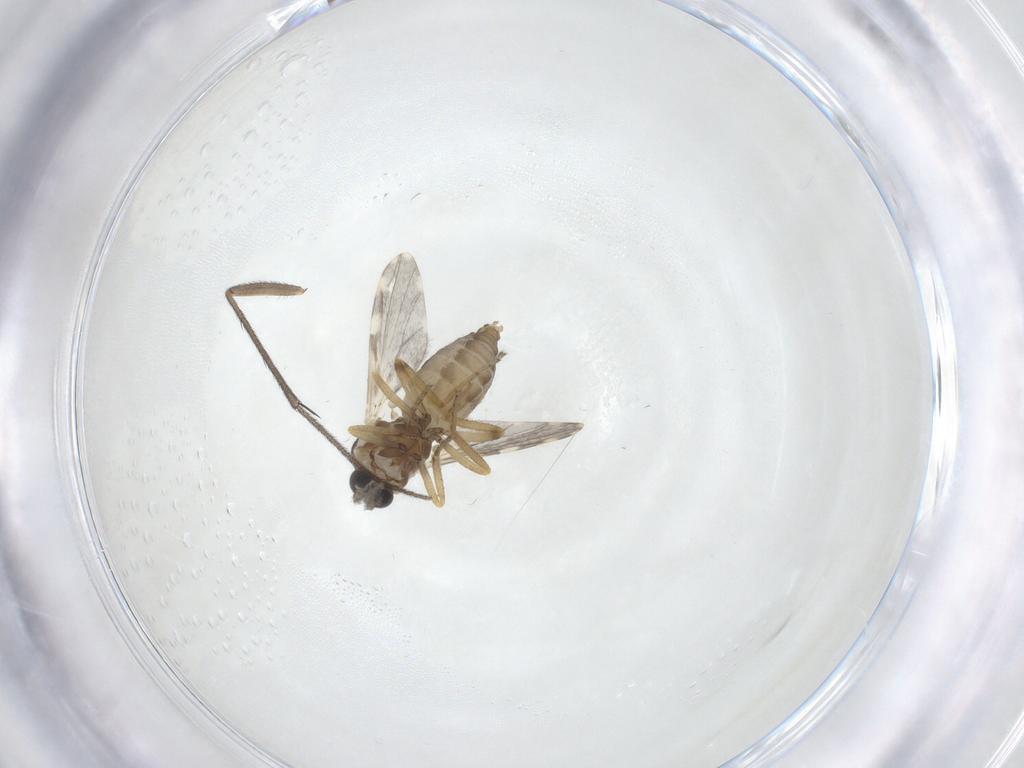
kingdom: Animalia
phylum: Arthropoda
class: Insecta
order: Diptera
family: Ceratopogonidae
